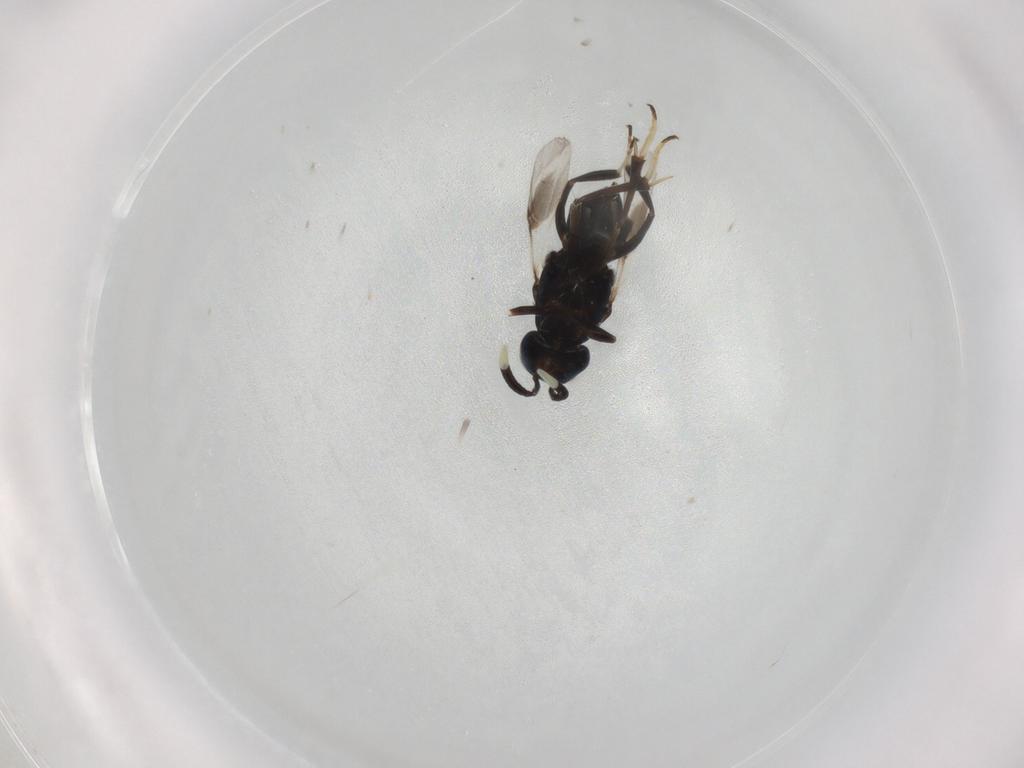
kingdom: Animalia
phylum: Arthropoda
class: Insecta
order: Hymenoptera
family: Encyrtidae
